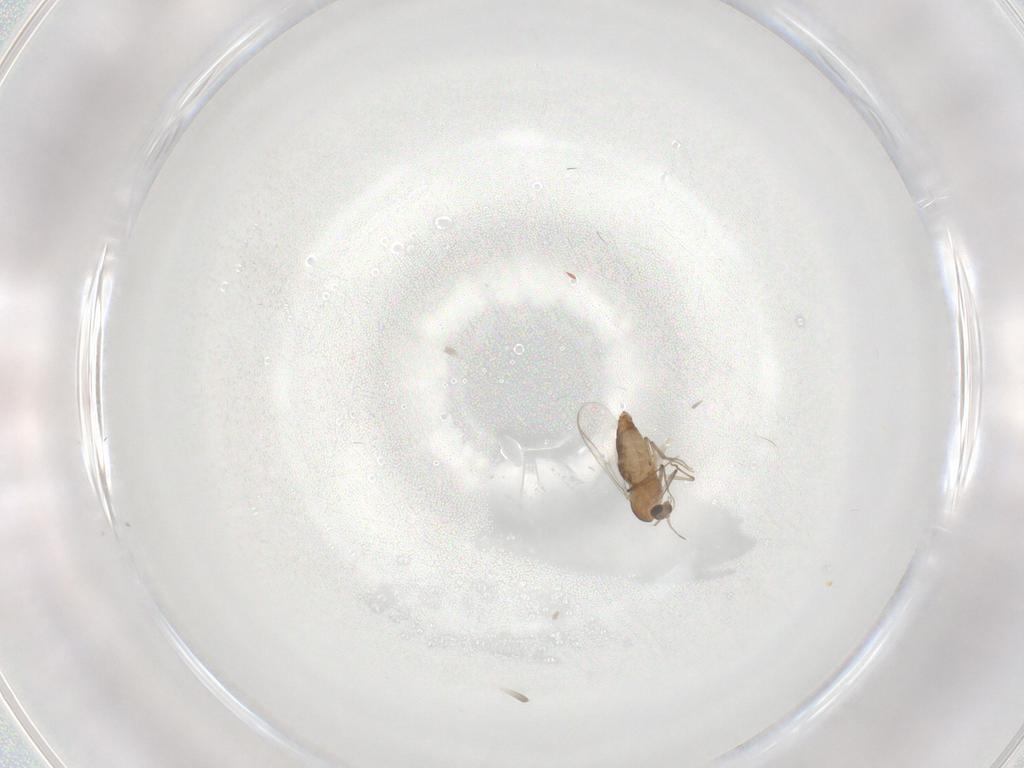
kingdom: Animalia
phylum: Arthropoda
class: Insecta
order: Diptera
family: Chironomidae
